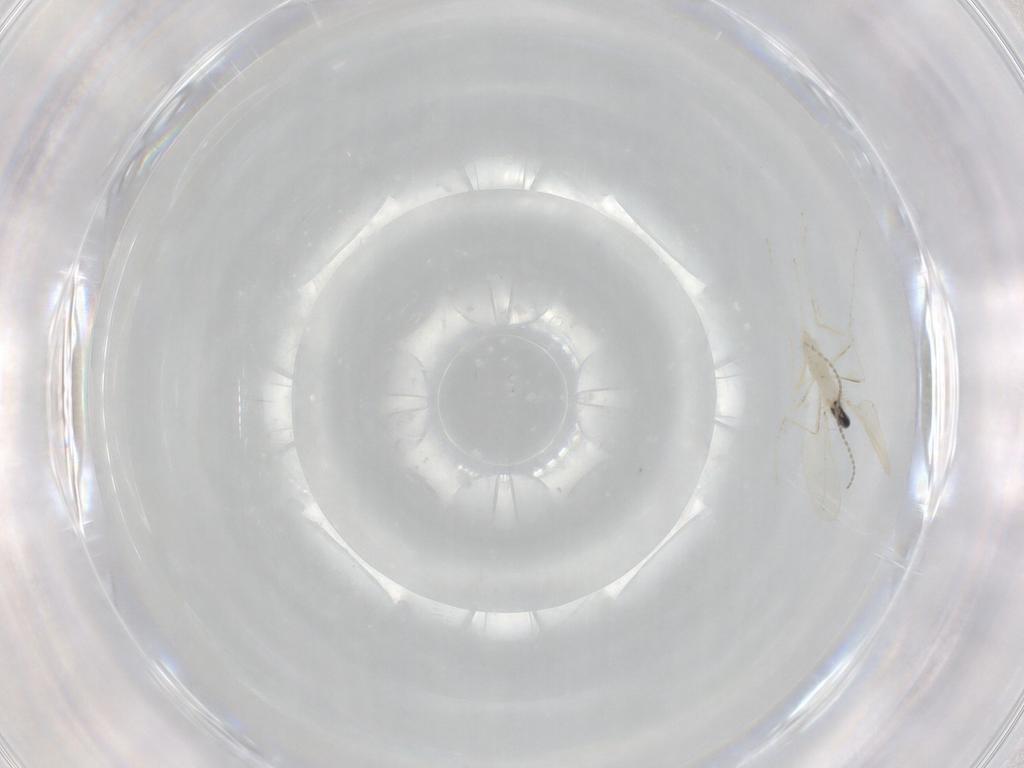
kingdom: Animalia
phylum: Arthropoda
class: Insecta
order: Diptera
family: Cecidomyiidae
